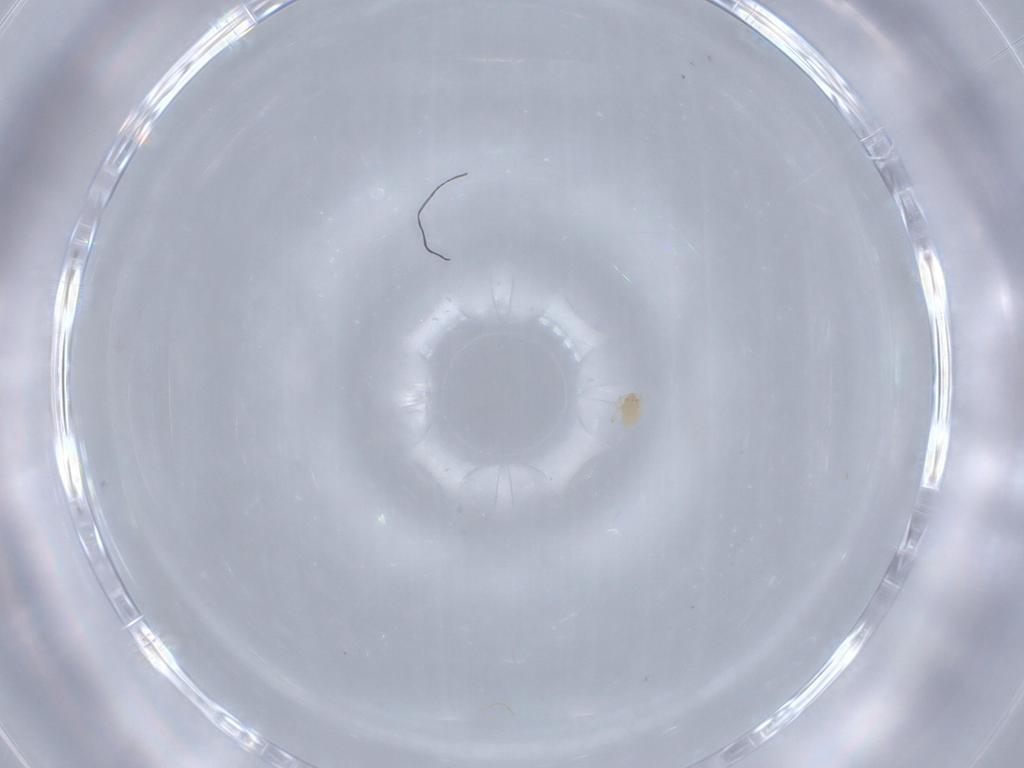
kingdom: Animalia
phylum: Arthropoda
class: Arachnida
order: Trombidiformes
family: Sperchontidae
